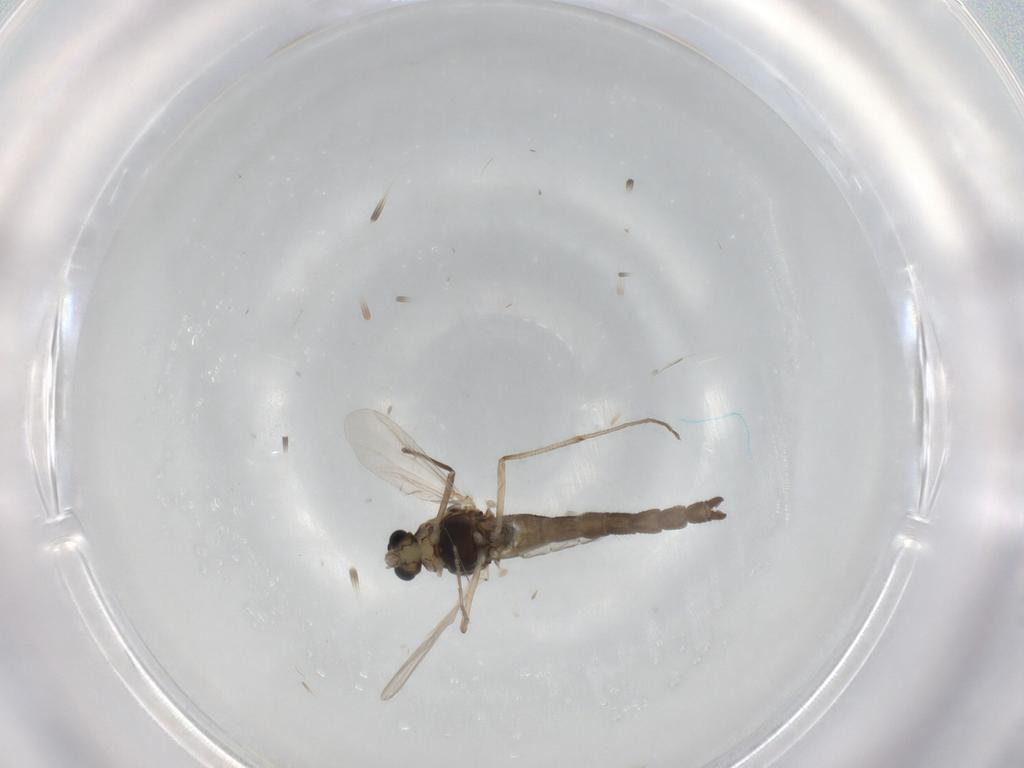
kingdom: Animalia
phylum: Arthropoda
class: Insecta
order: Diptera
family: Chironomidae
